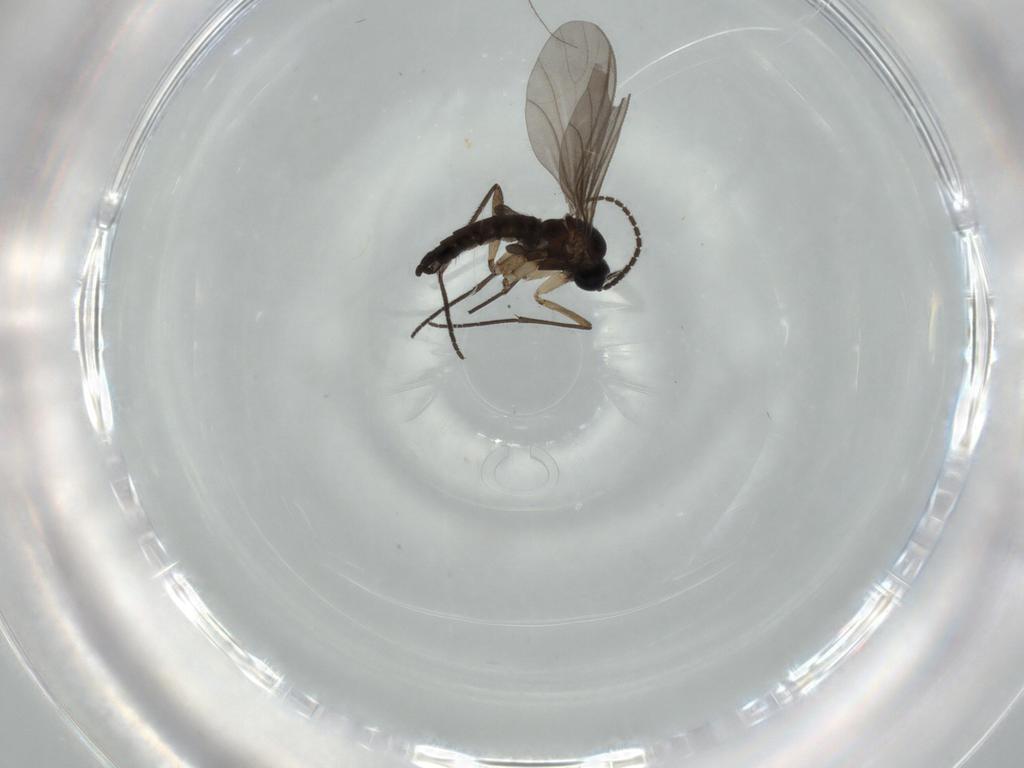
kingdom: Animalia
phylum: Arthropoda
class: Insecta
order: Diptera
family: Sciaridae
